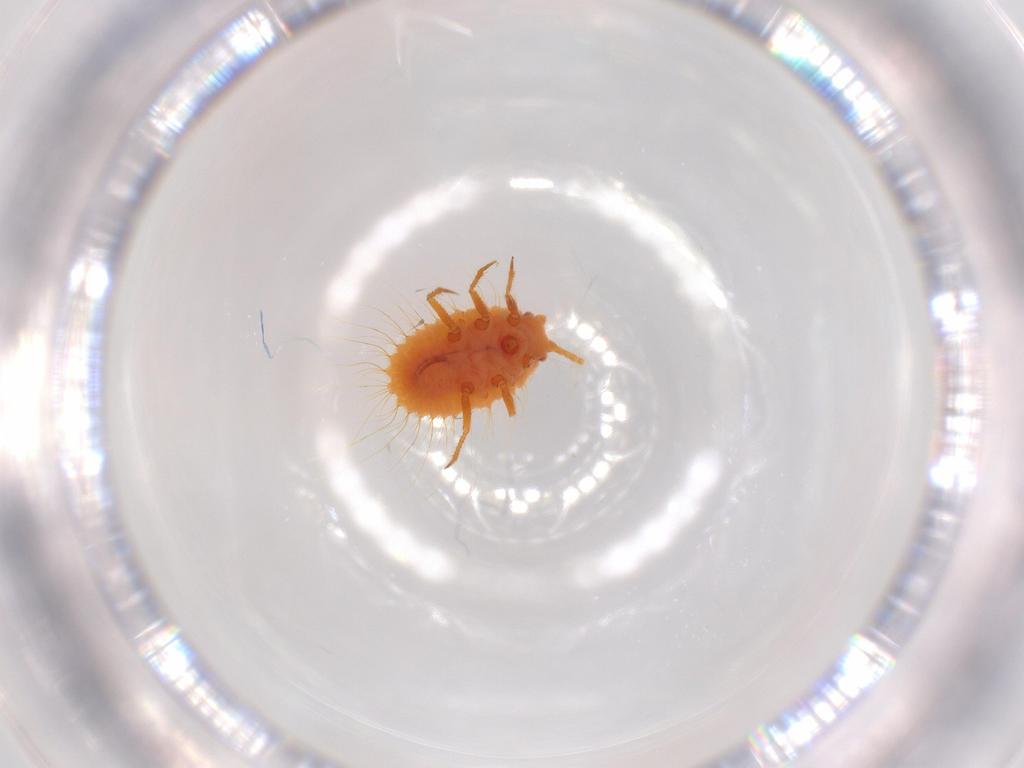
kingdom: Animalia
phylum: Arthropoda
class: Insecta
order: Hemiptera
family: Coccoidea_incertae_sedis
